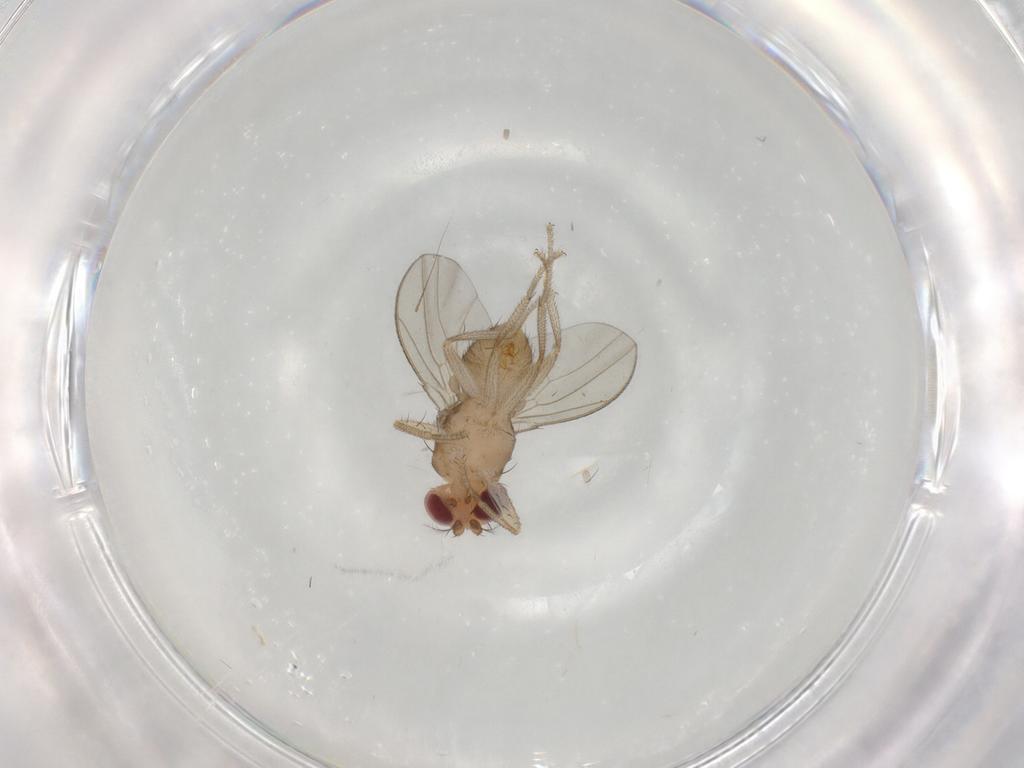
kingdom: Animalia
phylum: Arthropoda
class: Insecta
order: Diptera
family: Drosophilidae
